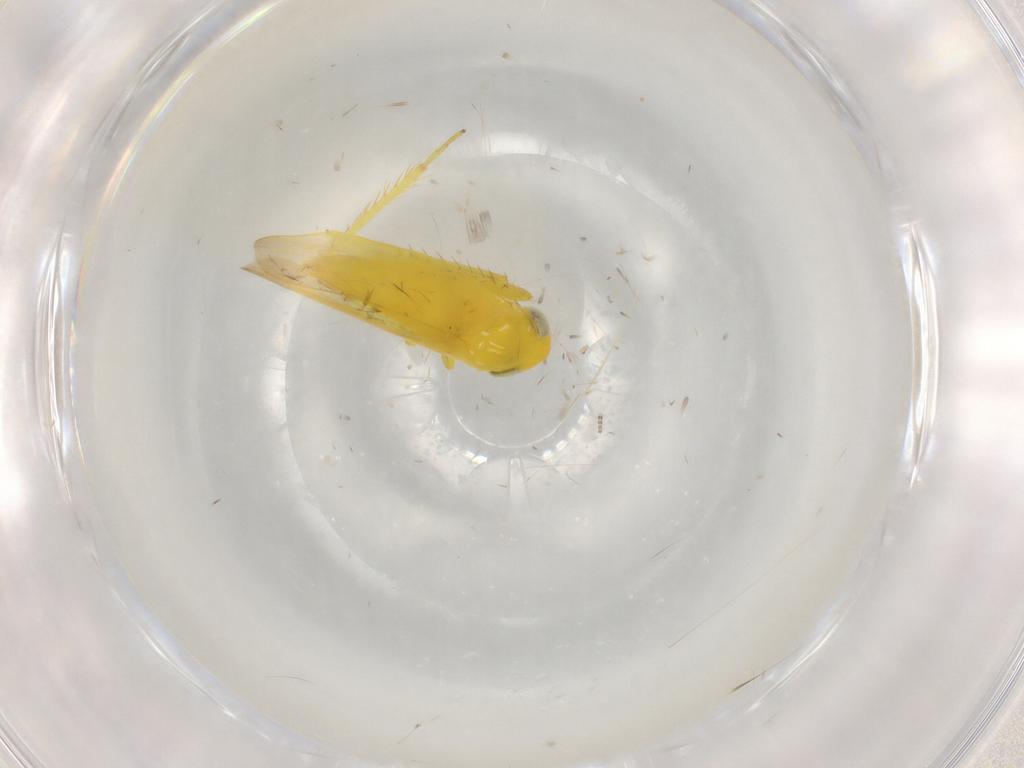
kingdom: Animalia
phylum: Arthropoda
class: Insecta
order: Hemiptera
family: Cicadellidae
